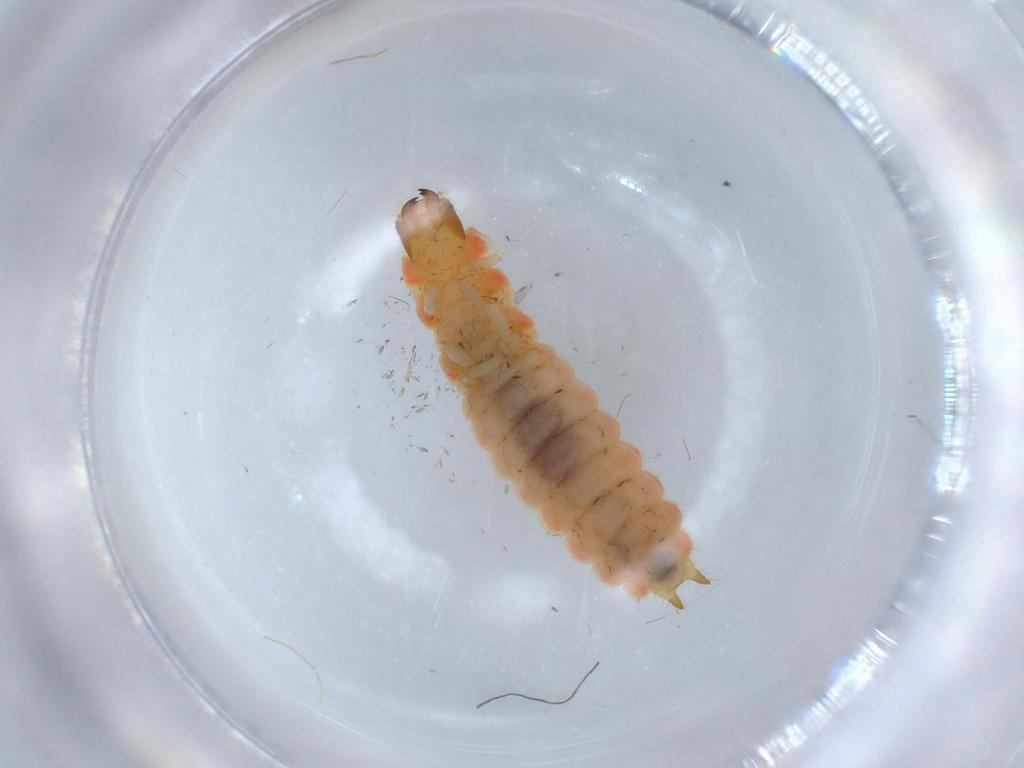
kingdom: Animalia
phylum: Arthropoda
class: Insecta
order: Coleoptera
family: Melyridae
